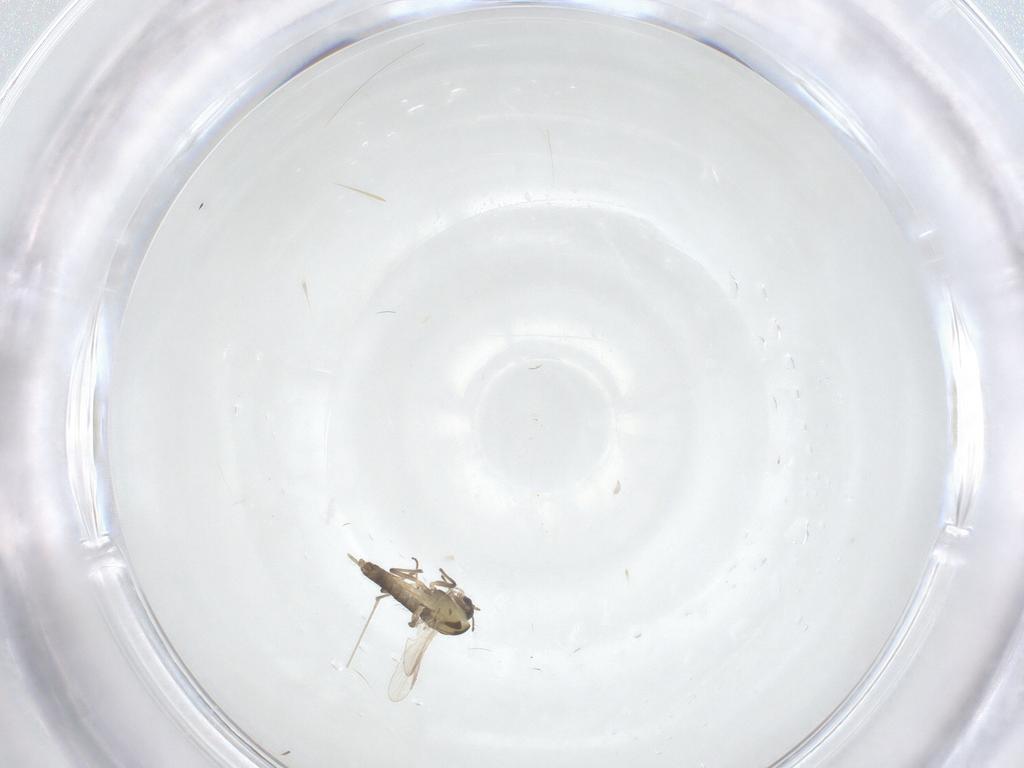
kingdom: Animalia
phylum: Arthropoda
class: Insecta
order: Diptera
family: Chironomidae
